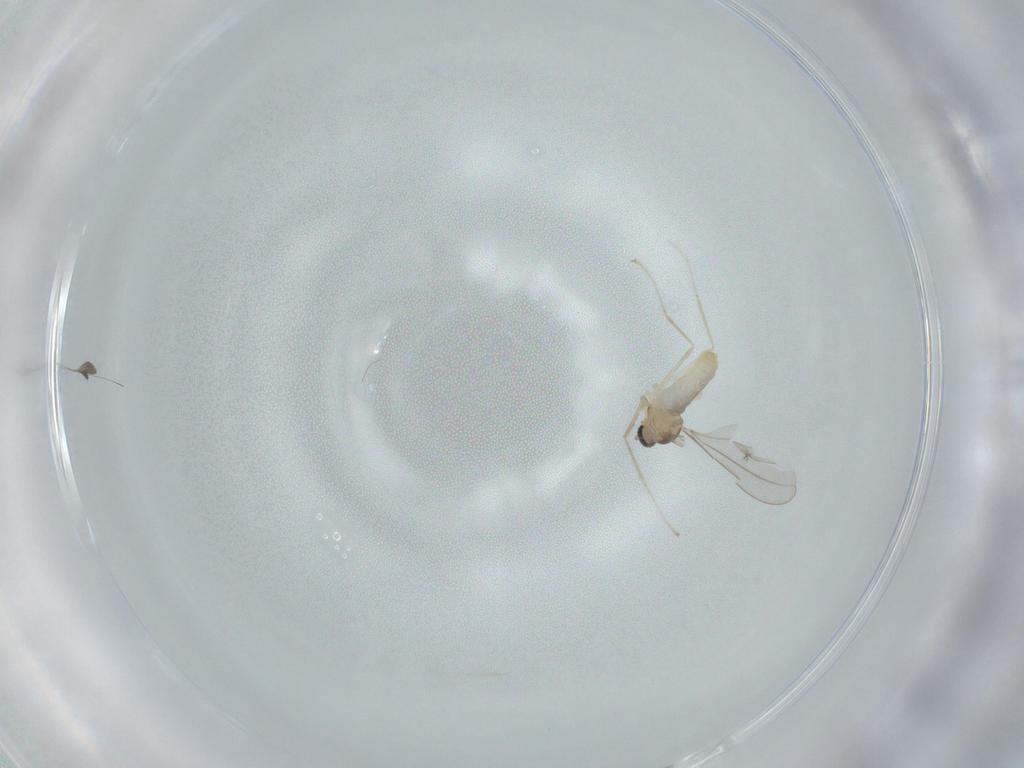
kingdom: Animalia
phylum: Arthropoda
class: Insecta
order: Diptera
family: Cecidomyiidae
